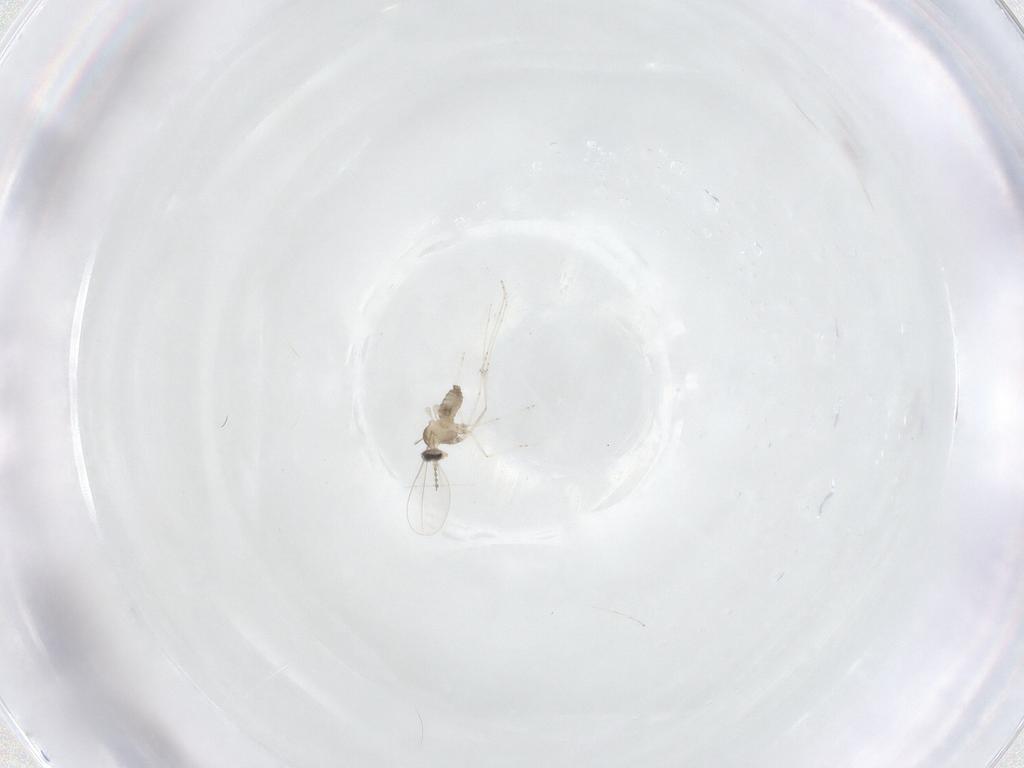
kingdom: Animalia
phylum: Arthropoda
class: Insecta
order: Diptera
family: Cecidomyiidae
